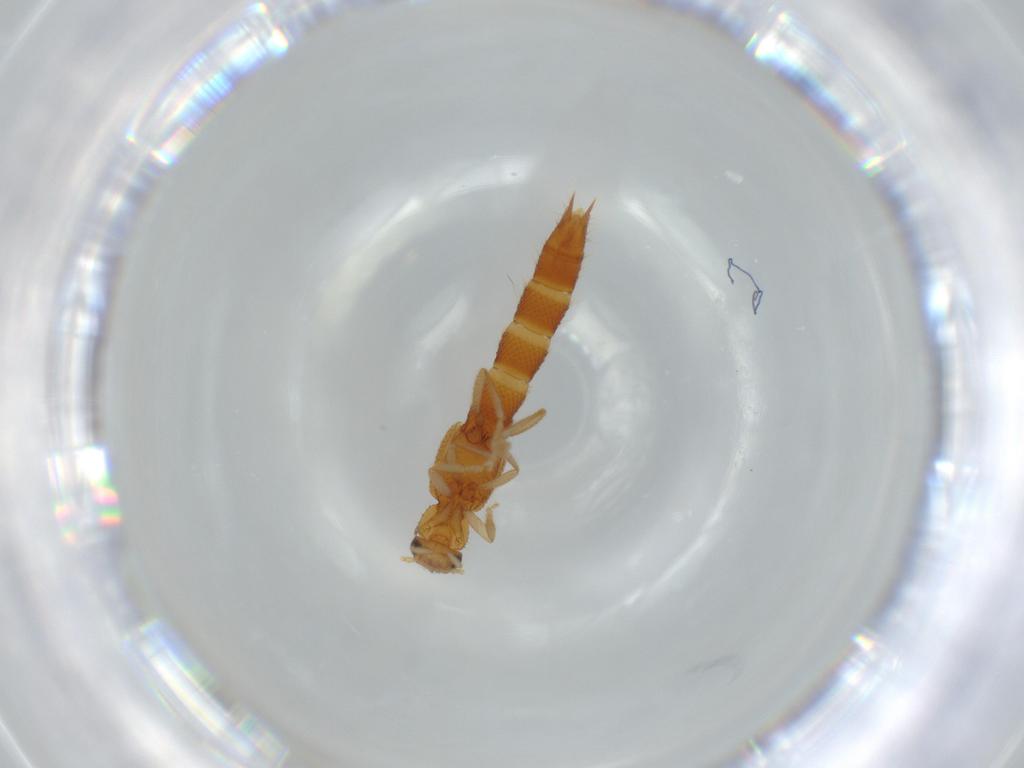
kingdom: Animalia
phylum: Arthropoda
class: Insecta
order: Coleoptera
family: Staphylinidae
